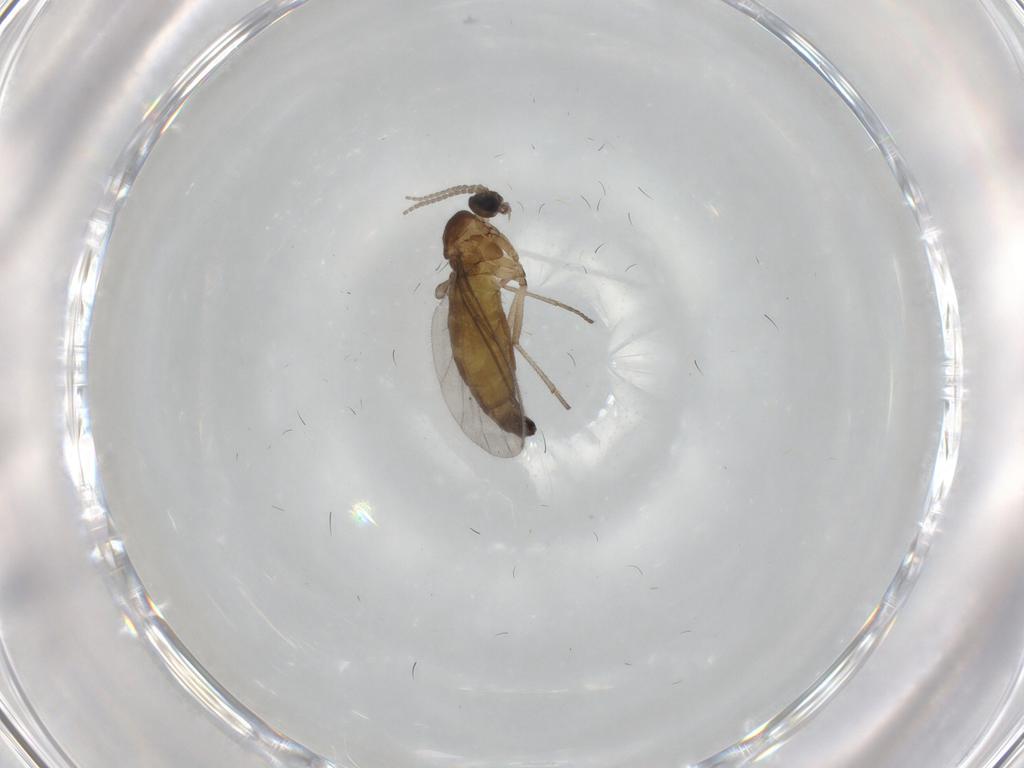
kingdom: Animalia
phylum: Arthropoda
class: Insecta
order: Diptera
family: Sciaridae
